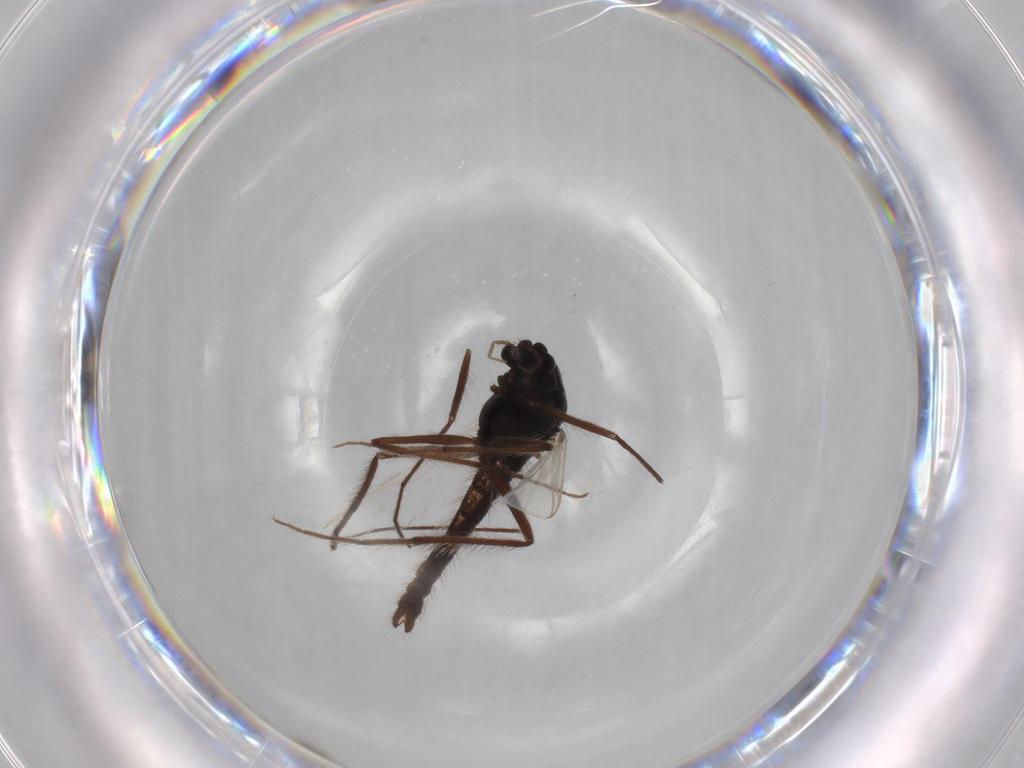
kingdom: Animalia
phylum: Arthropoda
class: Insecta
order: Diptera
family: Drosophilidae
